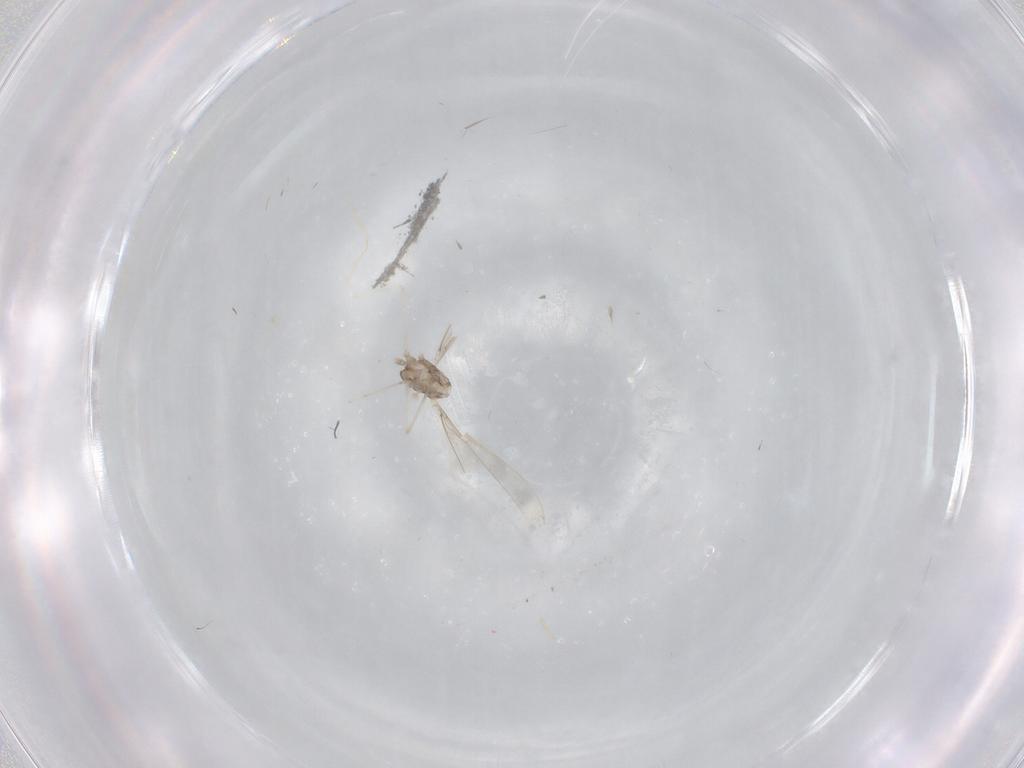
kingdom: Animalia
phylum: Arthropoda
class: Insecta
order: Diptera
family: Cecidomyiidae
